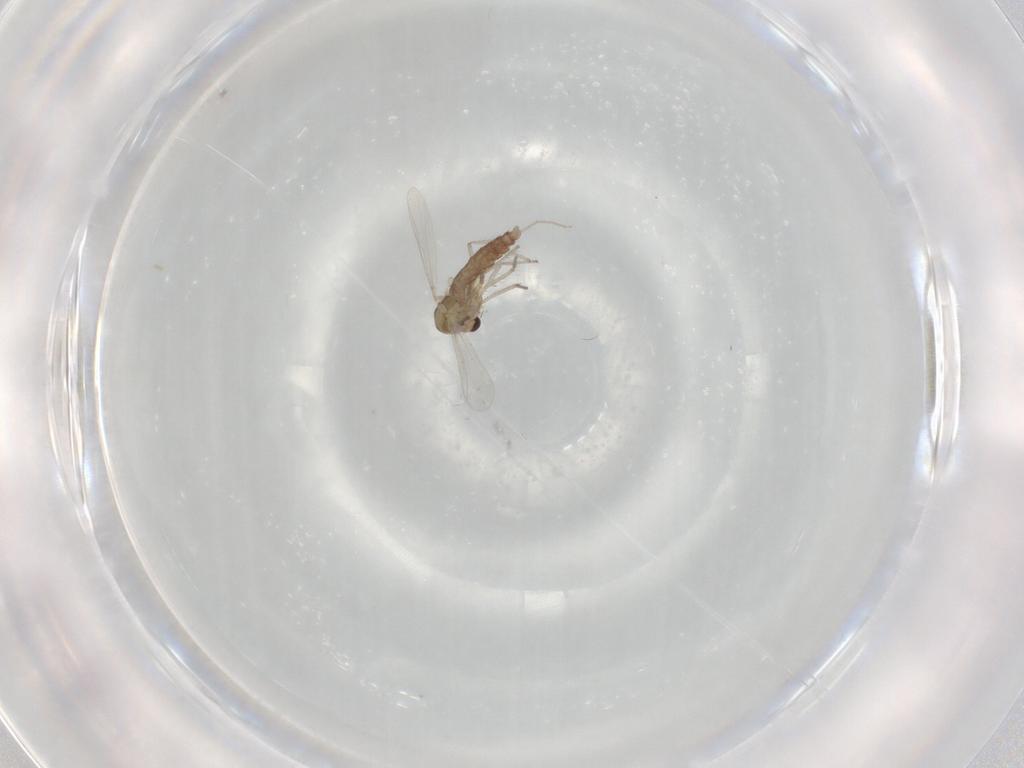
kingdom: Animalia
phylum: Arthropoda
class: Insecta
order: Diptera
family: Chironomidae
